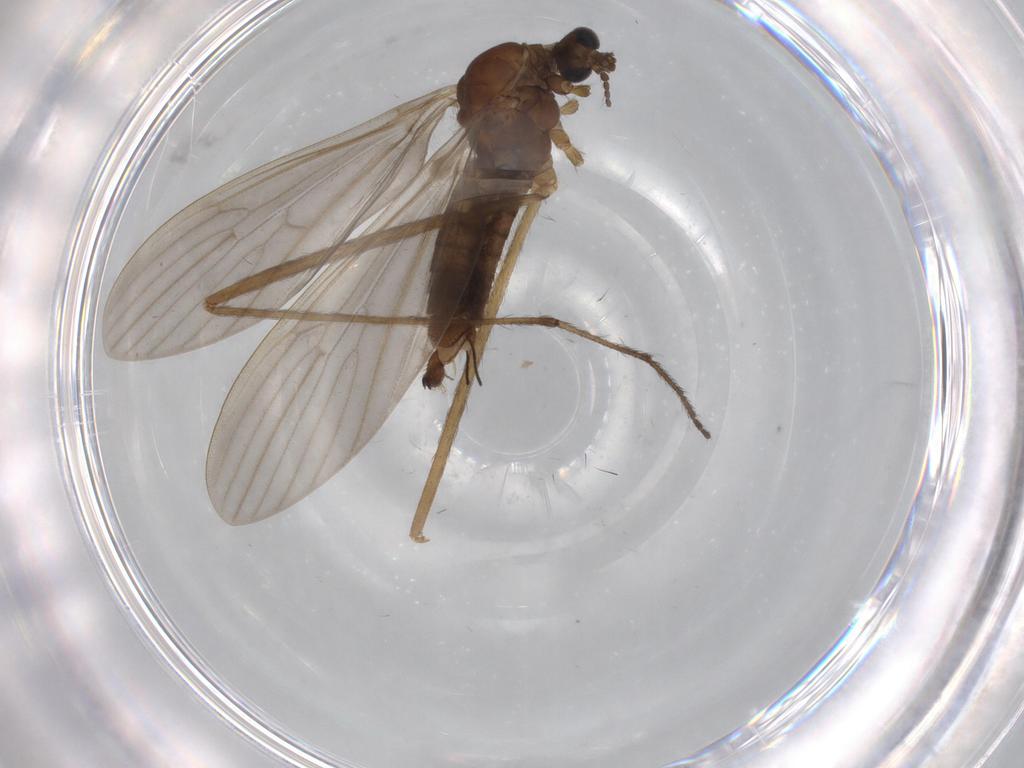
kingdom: Animalia
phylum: Arthropoda
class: Insecta
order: Diptera
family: Limoniidae
